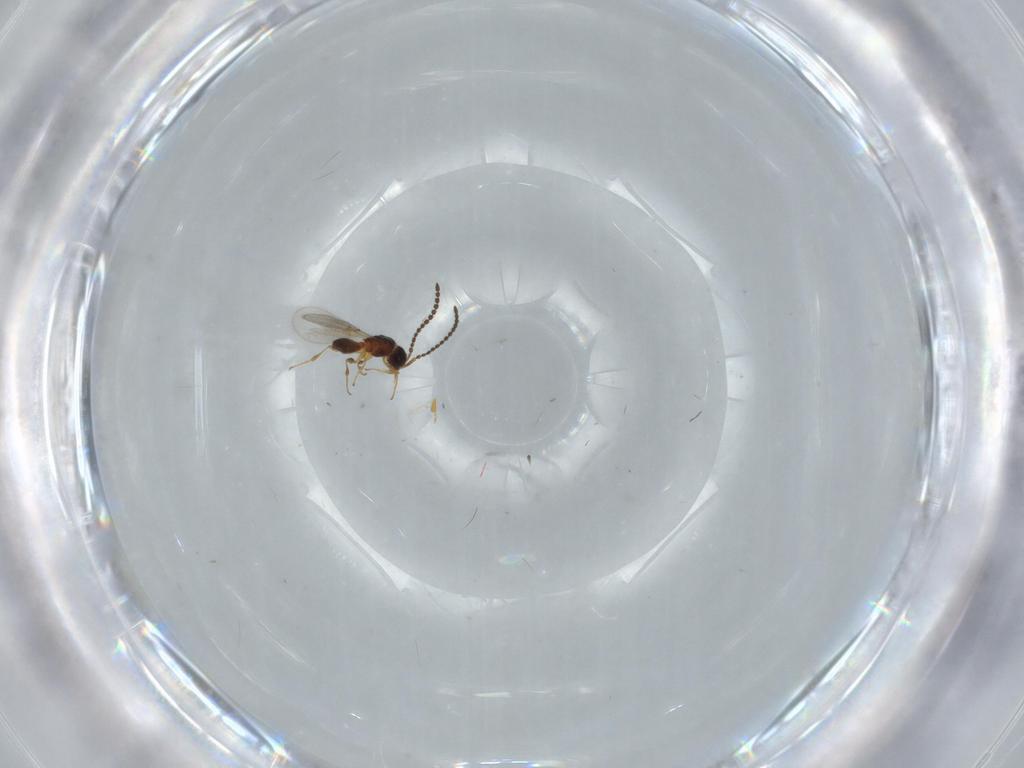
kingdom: Animalia
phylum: Arthropoda
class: Insecta
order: Hymenoptera
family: Diapriidae
